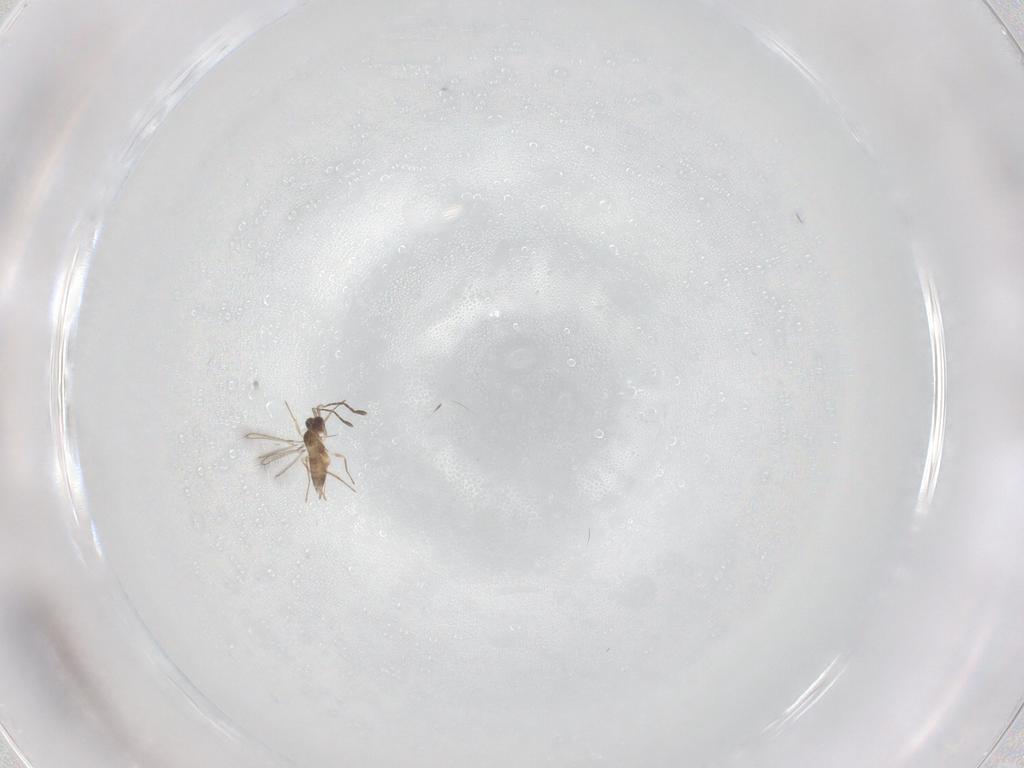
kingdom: Animalia
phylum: Arthropoda
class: Insecta
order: Hymenoptera
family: Mymaridae
